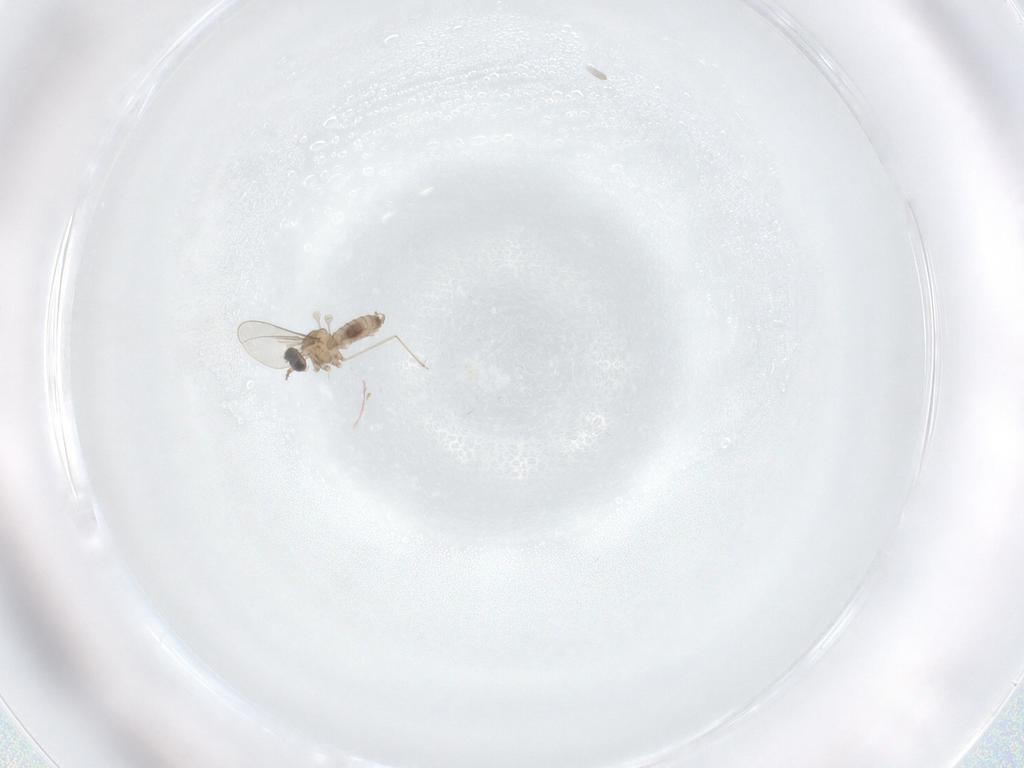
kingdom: Animalia
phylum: Arthropoda
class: Insecta
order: Diptera
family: Cecidomyiidae
